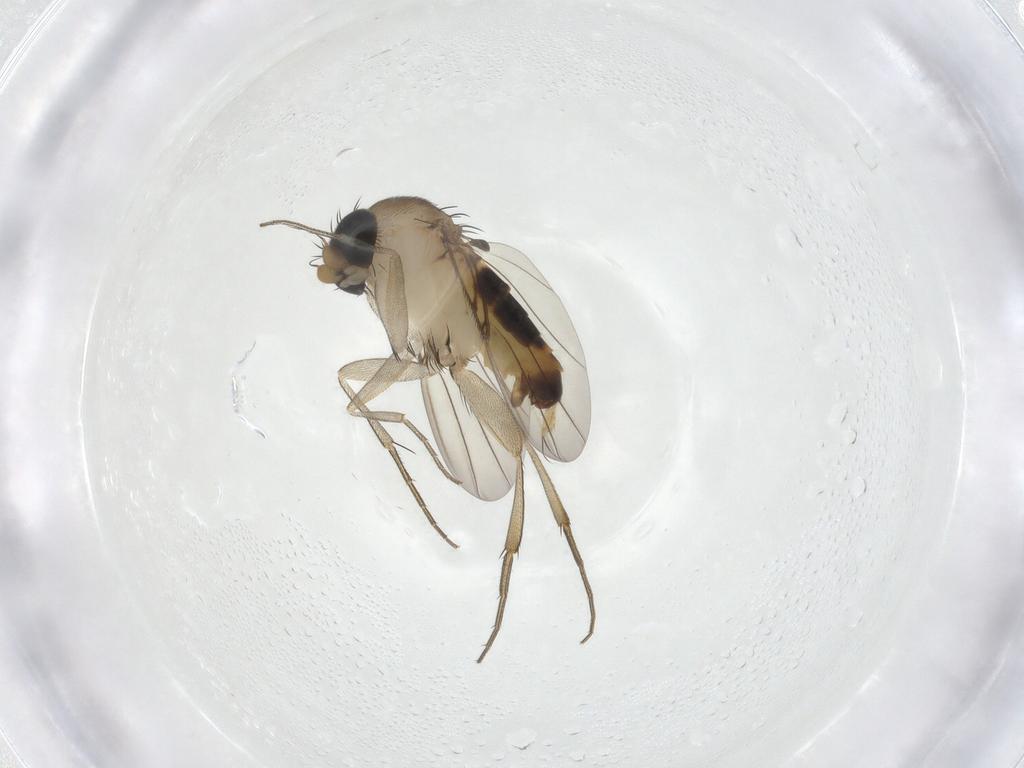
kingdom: Animalia
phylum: Arthropoda
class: Insecta
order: Diptera
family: Phoridae
